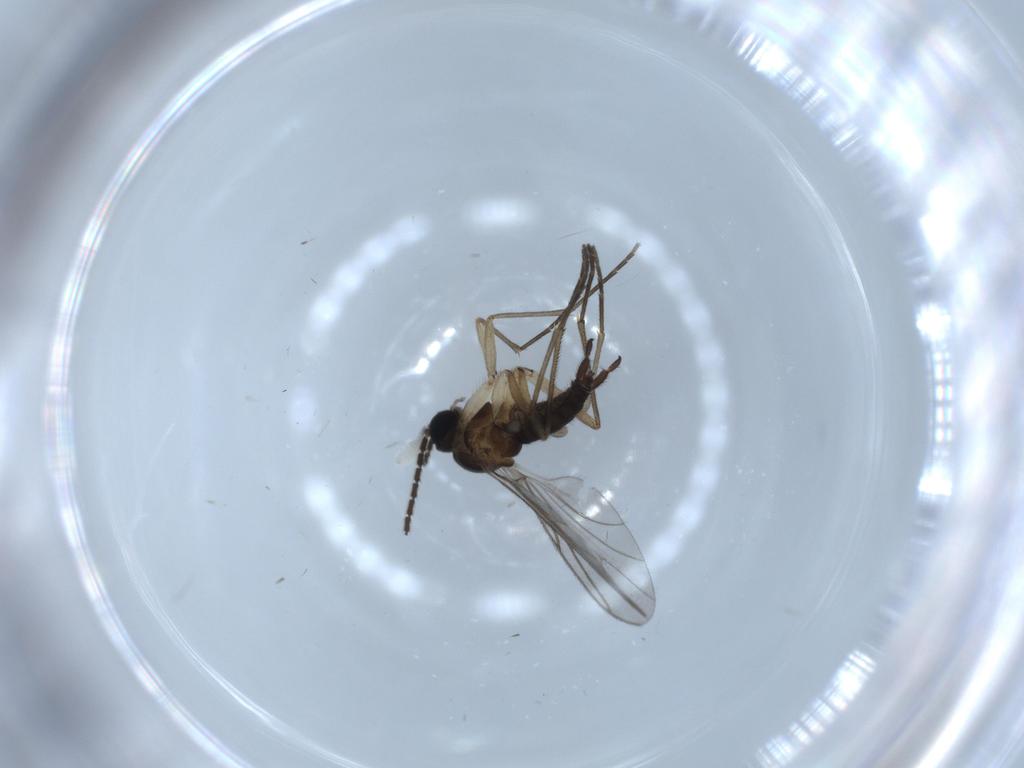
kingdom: Animalia
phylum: Arthropoda
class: Insecta
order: Diptera
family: Sciaridae
